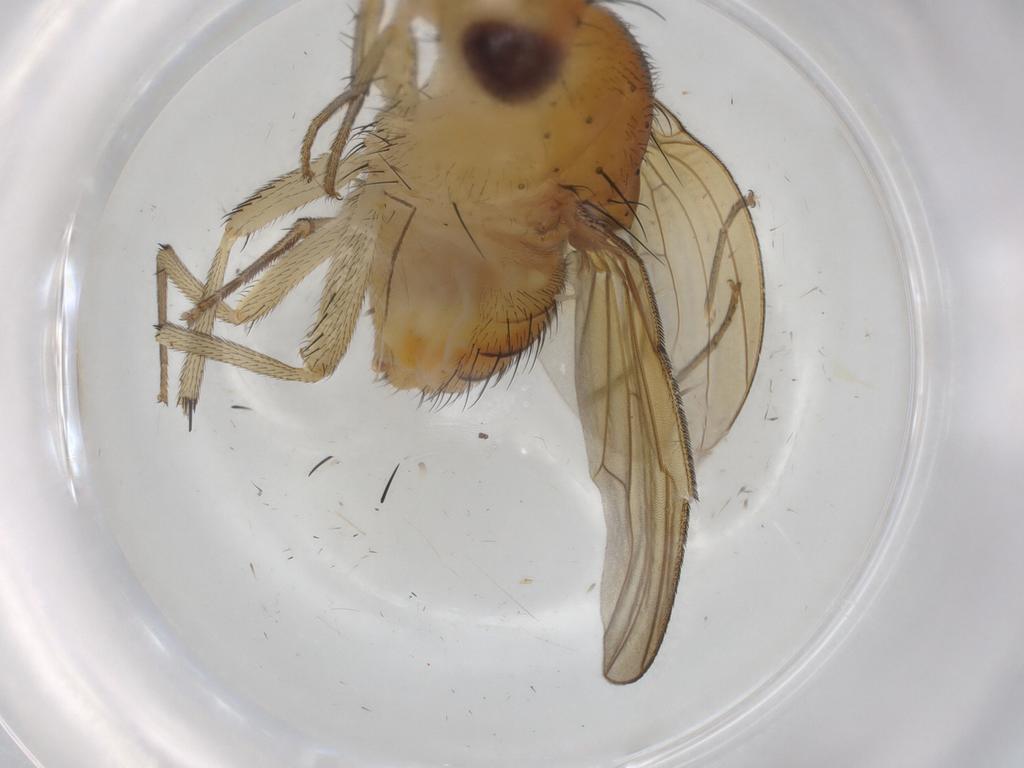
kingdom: Animalia
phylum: Arthropoda
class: Insecta
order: Diptera
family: Cecidomyiidae
